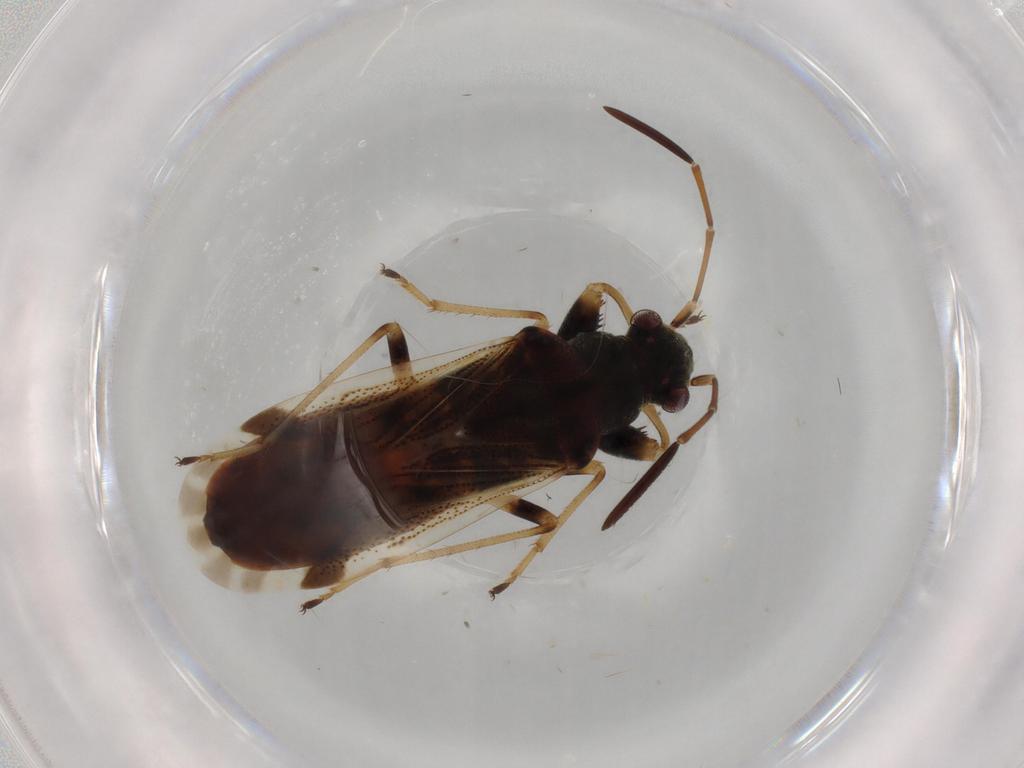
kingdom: Animalia
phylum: Arthropoda
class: Insecta
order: Hemiptera
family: Rhyparochromidae
